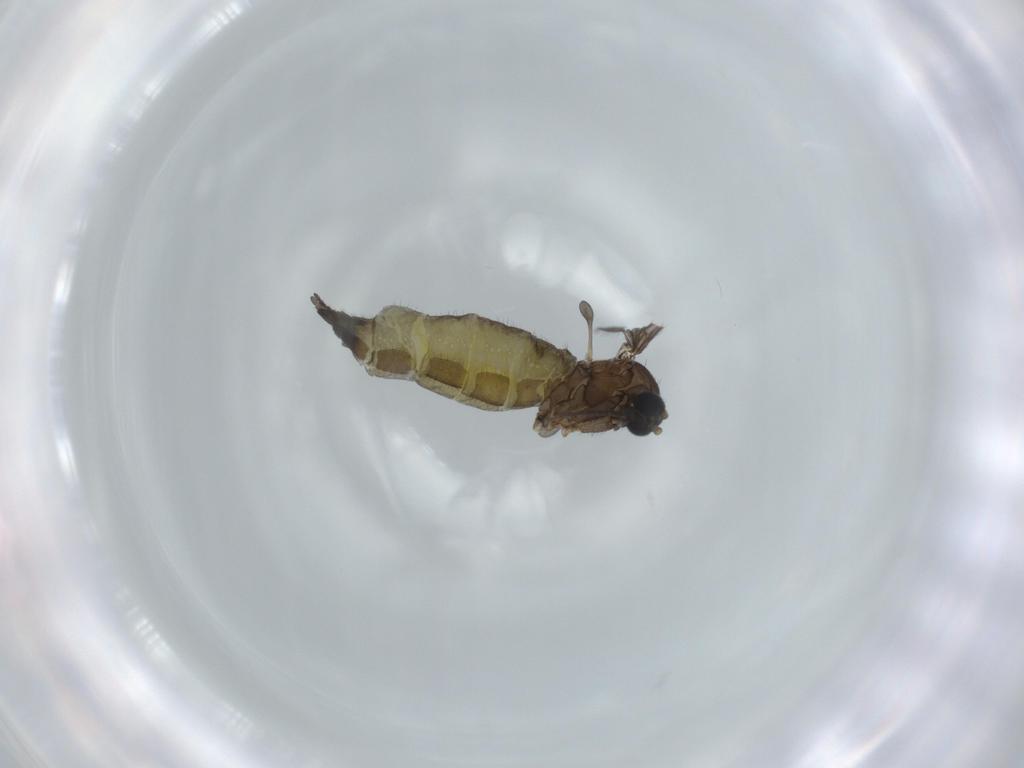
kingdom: Animalia
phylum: Arthropoda
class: Insecta
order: Diptera
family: Sciaridae
